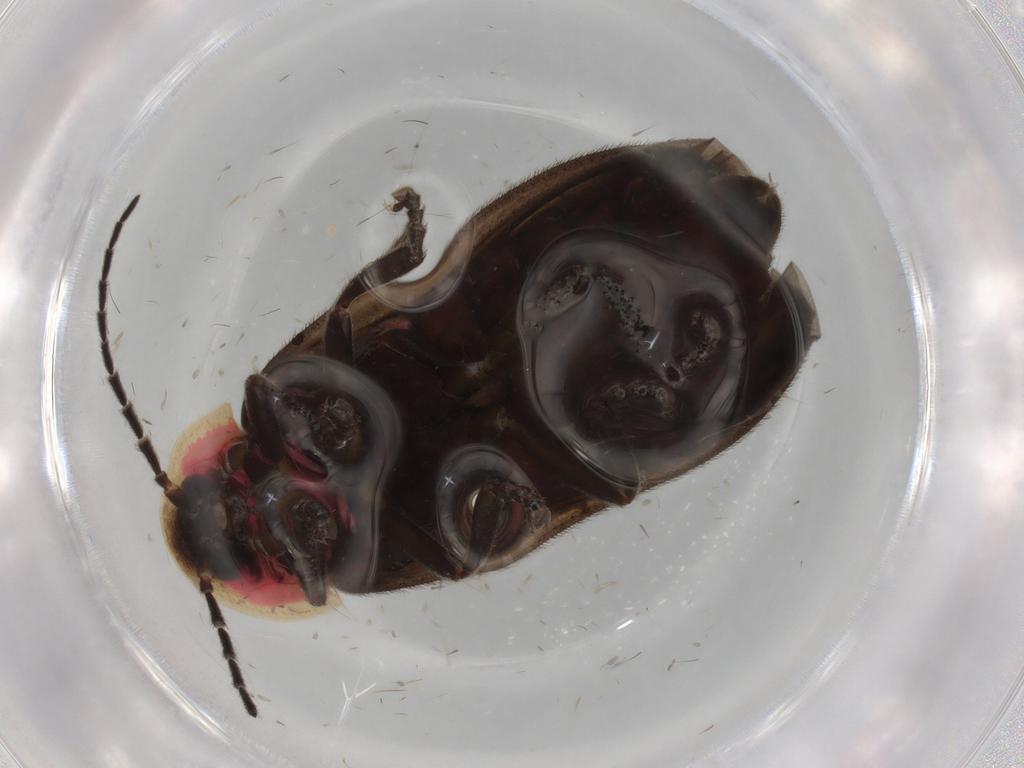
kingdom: Animalia
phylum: Arthropoda
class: Insecta
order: Coleoptera
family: Lampyridae
